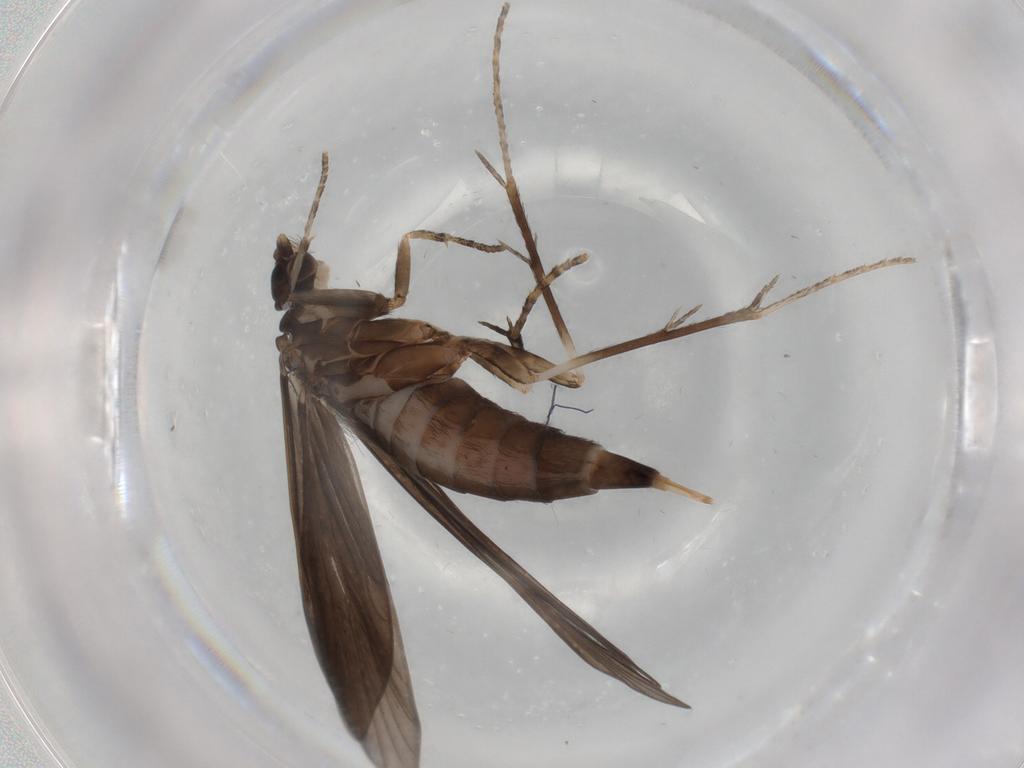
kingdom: Animalia
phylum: Arthropoda
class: Insecta
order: Trichoptera
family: Xiphocentronidae
